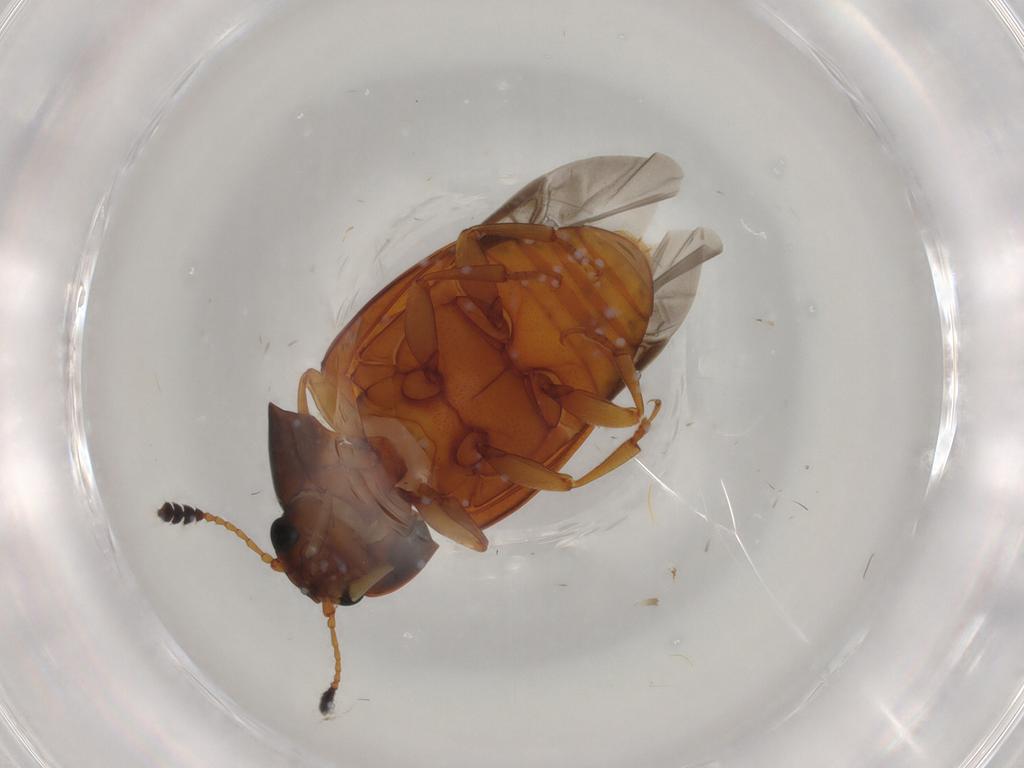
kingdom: Animalia
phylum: Arthropoda
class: Insecta
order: Coleoptera
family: Erotylidae
